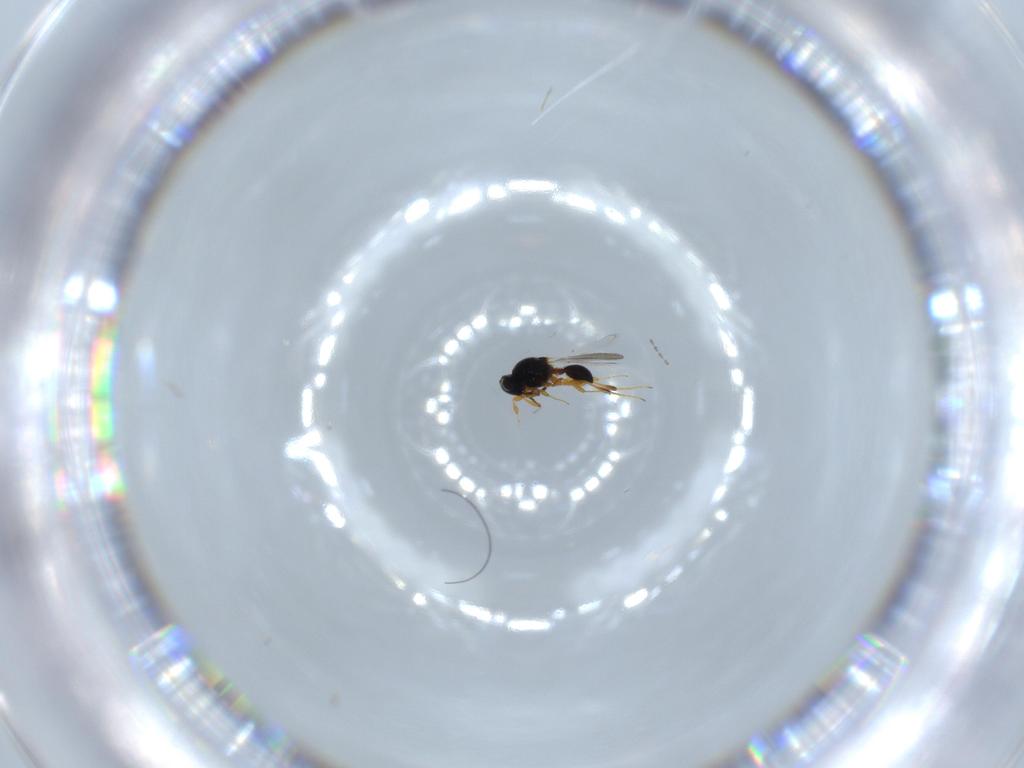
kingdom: Animalia
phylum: Arthropoda
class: Insecta
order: Hymenoptera
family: Platygastridae
